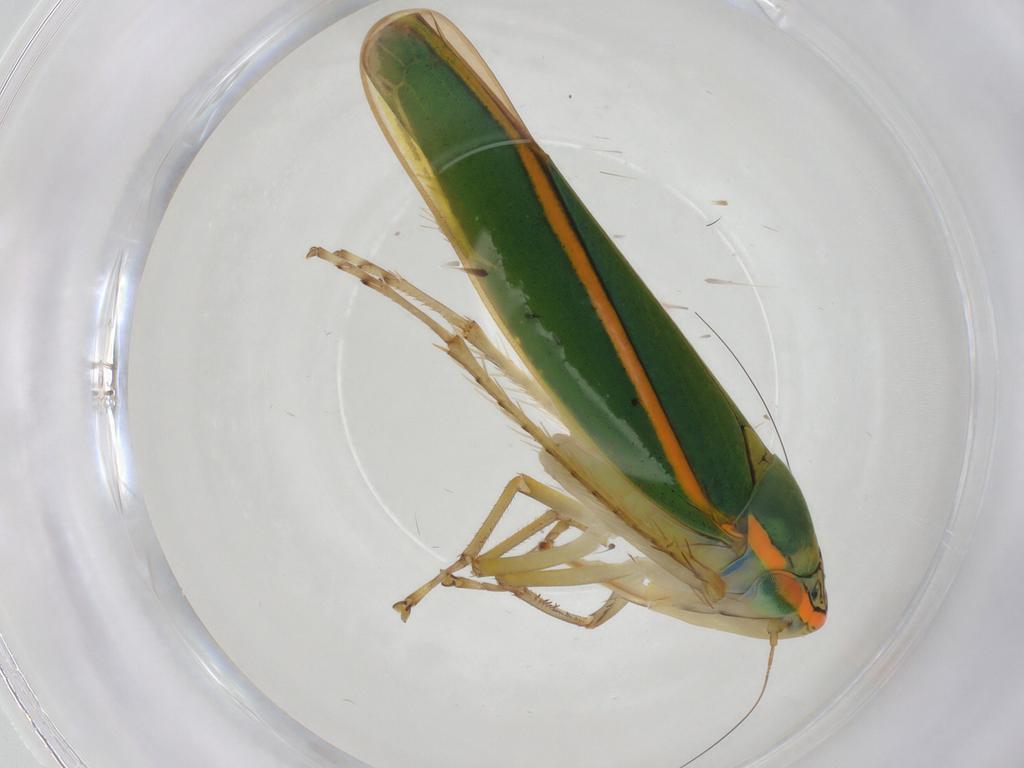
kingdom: Animalia
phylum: Arthropoda
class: Insecta
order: Hemiptera
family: Cicadellidae
